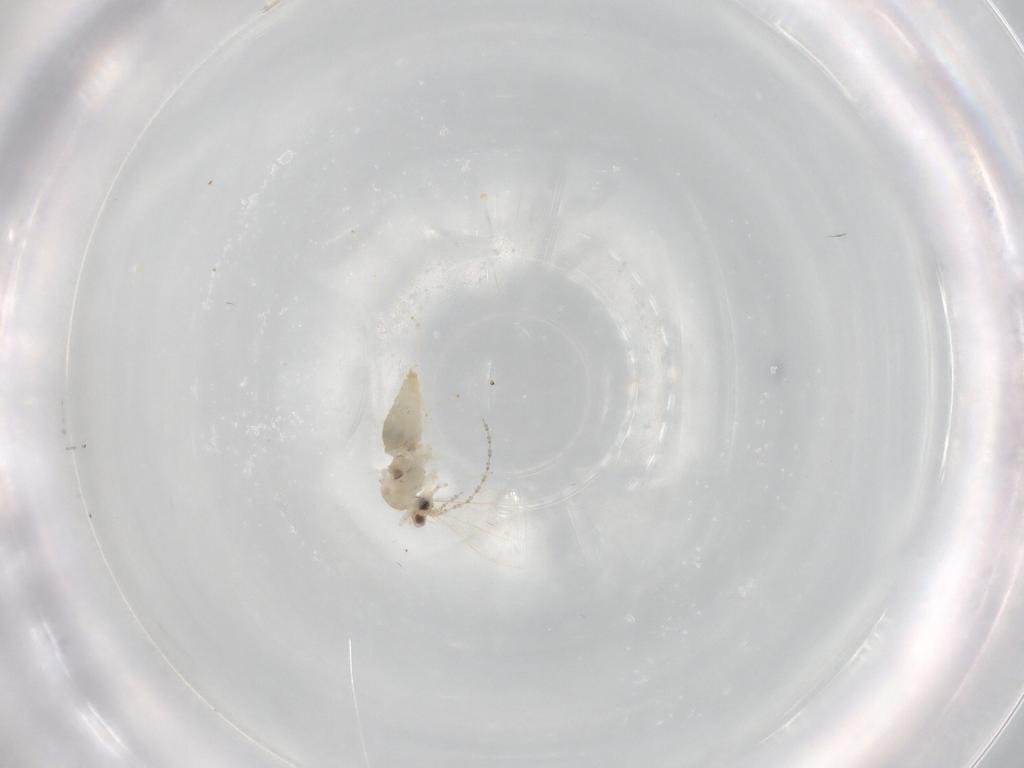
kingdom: Animalia
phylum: Arthropoda
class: Insecta
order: Diptera
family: Cecidomyiidae
